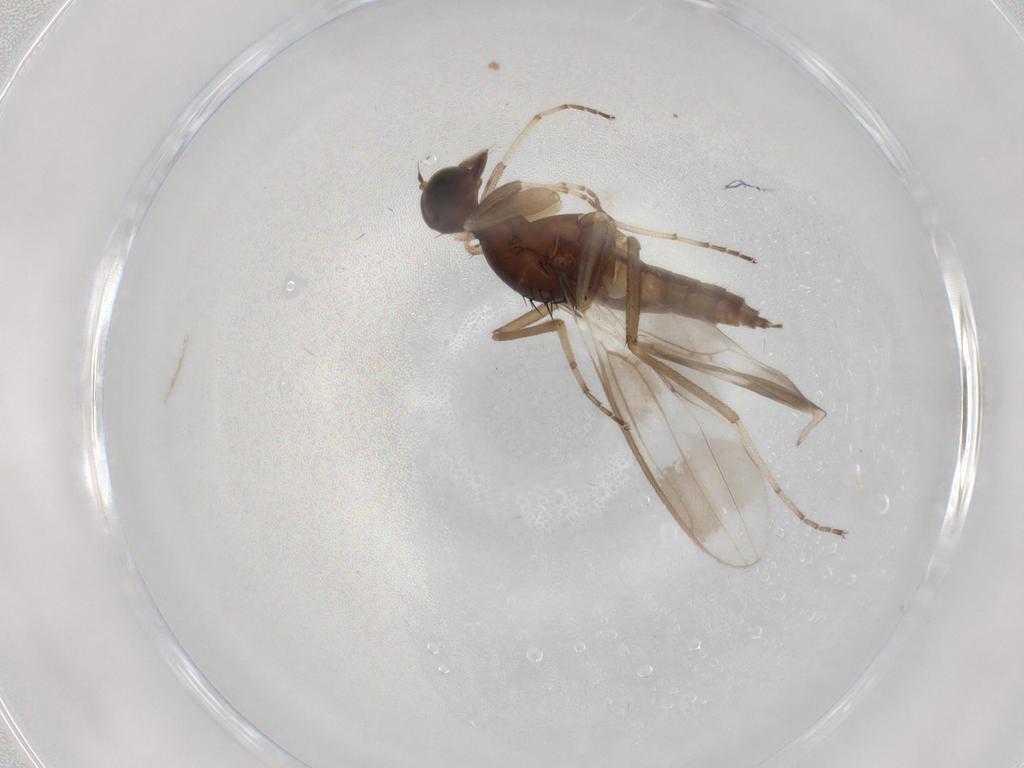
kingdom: Animalia
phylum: Arthropoda
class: Insecta
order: Diptera
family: Hybotidae
